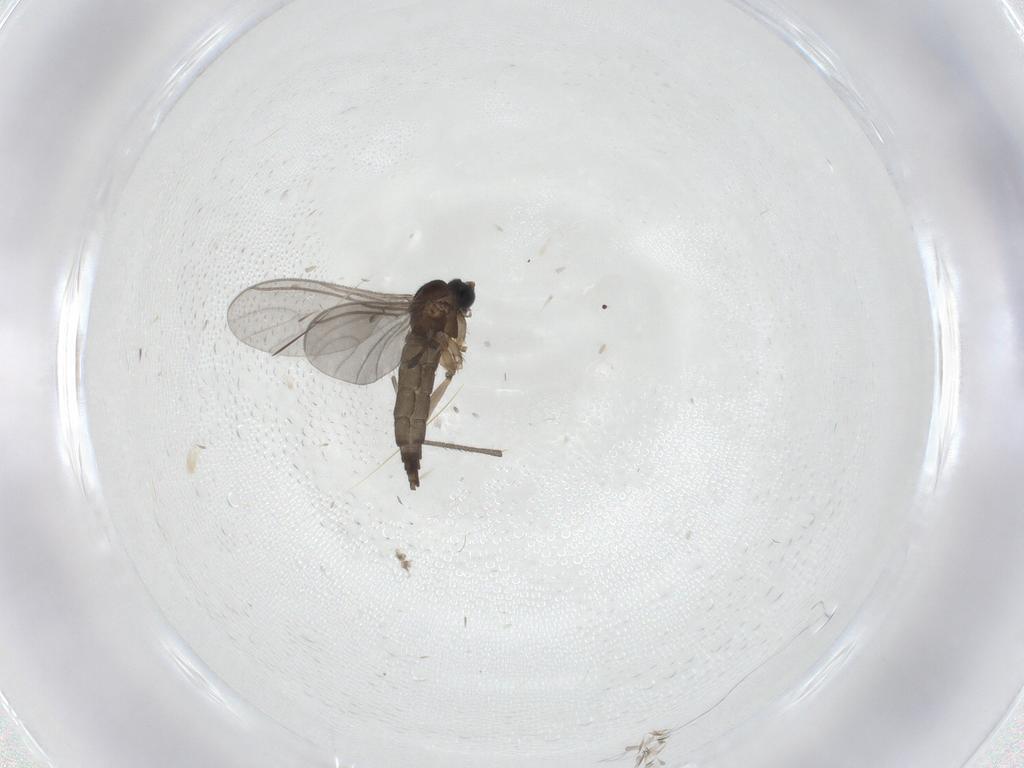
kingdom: Animalia
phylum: Arthropoda
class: Insecta
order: Diptera
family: Sciaridae
